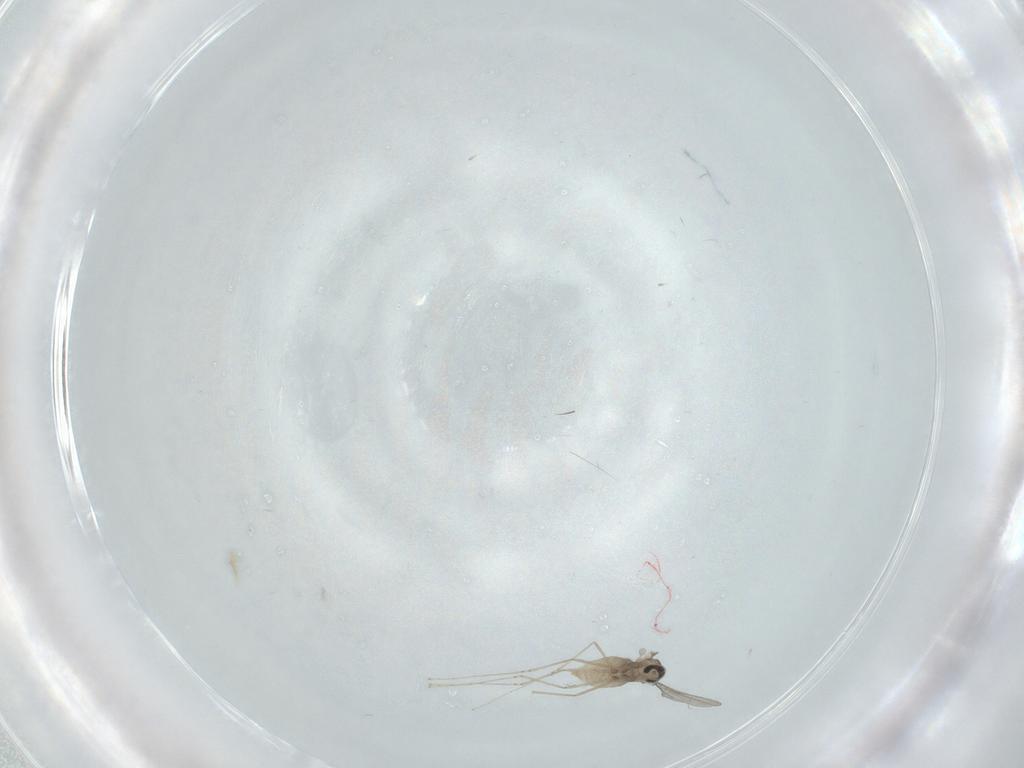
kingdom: Animalia
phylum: Arthropoda
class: Insecta
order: Diptera
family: Cecidomyiidae
